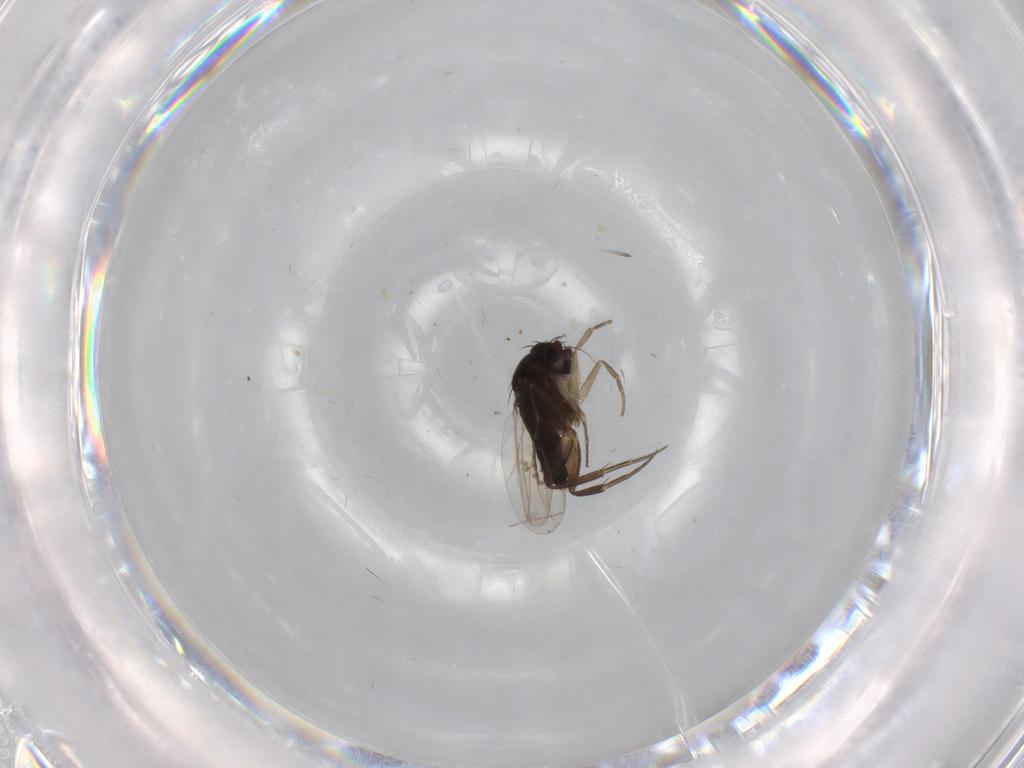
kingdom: Animalia
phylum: Arthropoda
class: Insecta
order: Diptera
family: Phoridae
